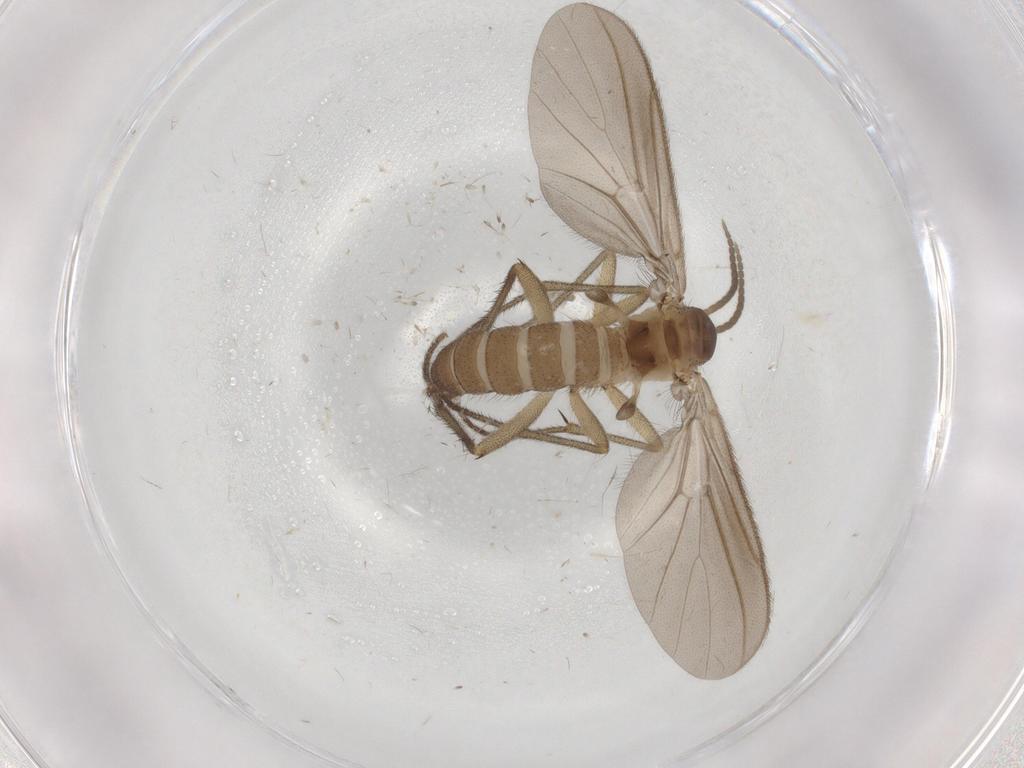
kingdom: Animalia
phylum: Arthropoda
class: Insecta
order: Diptera
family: Phoridae
